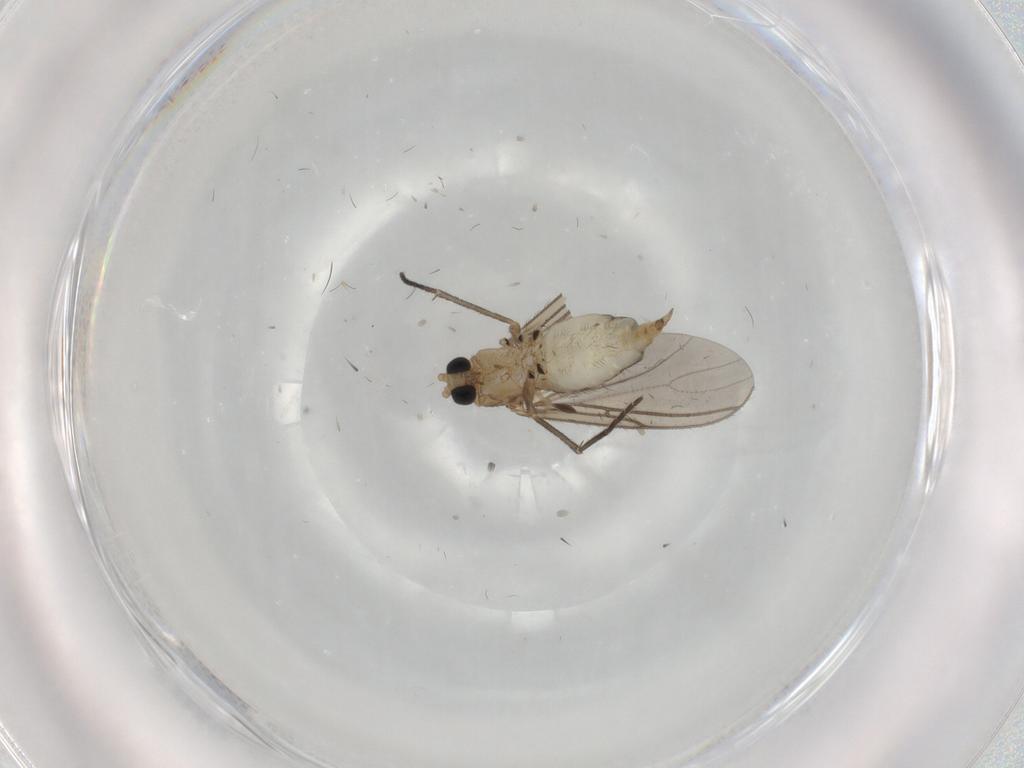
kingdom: Animalia
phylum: Arthropoda
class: Insecta
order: Diptera
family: Sciaridae
